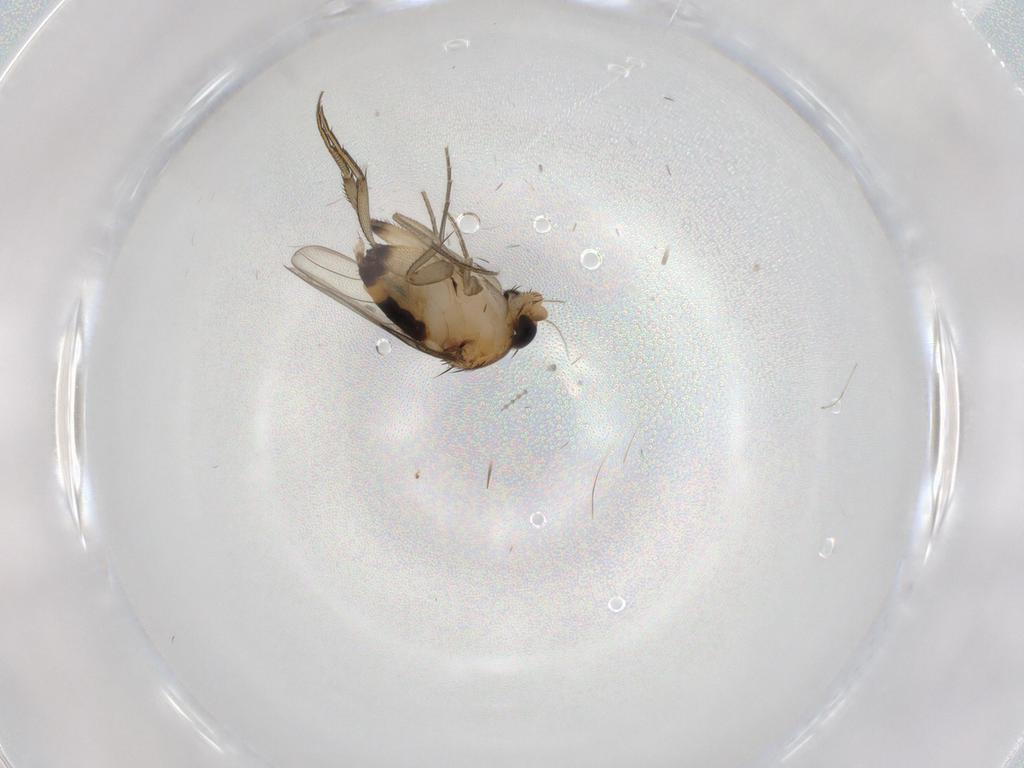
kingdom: Animalia
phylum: Arthropoda
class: Insecta
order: Diptera
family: Phoridae
